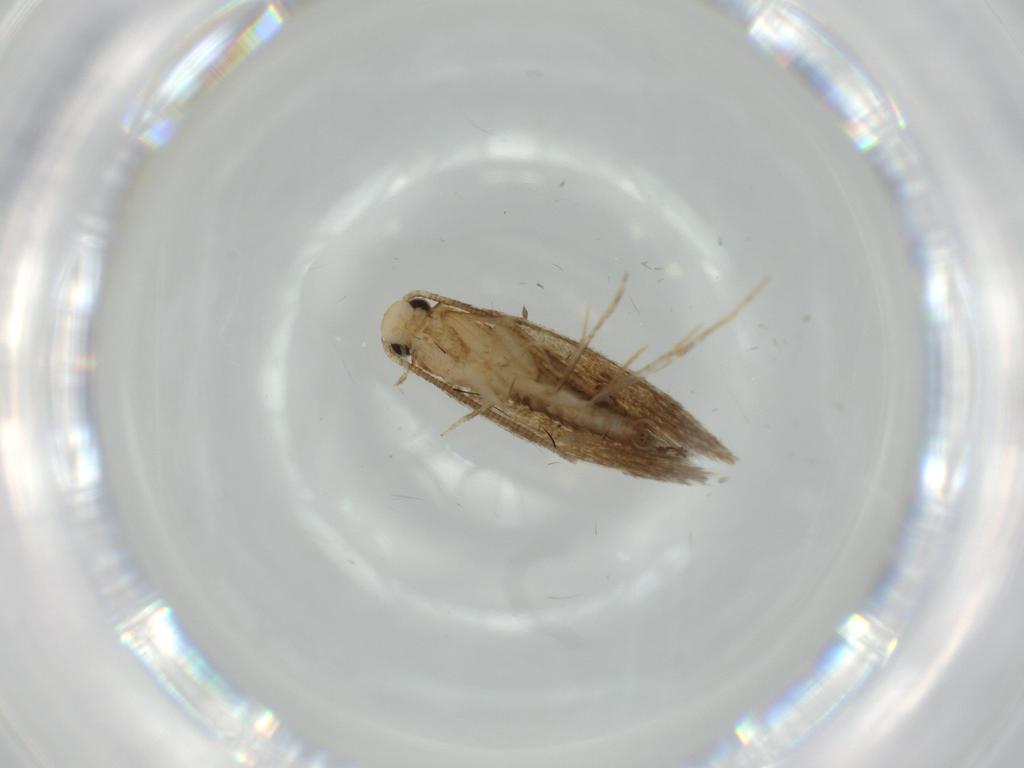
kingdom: Animalia
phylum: Arthropoda
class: Insecta
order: Lepidoptera
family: Tineidae
